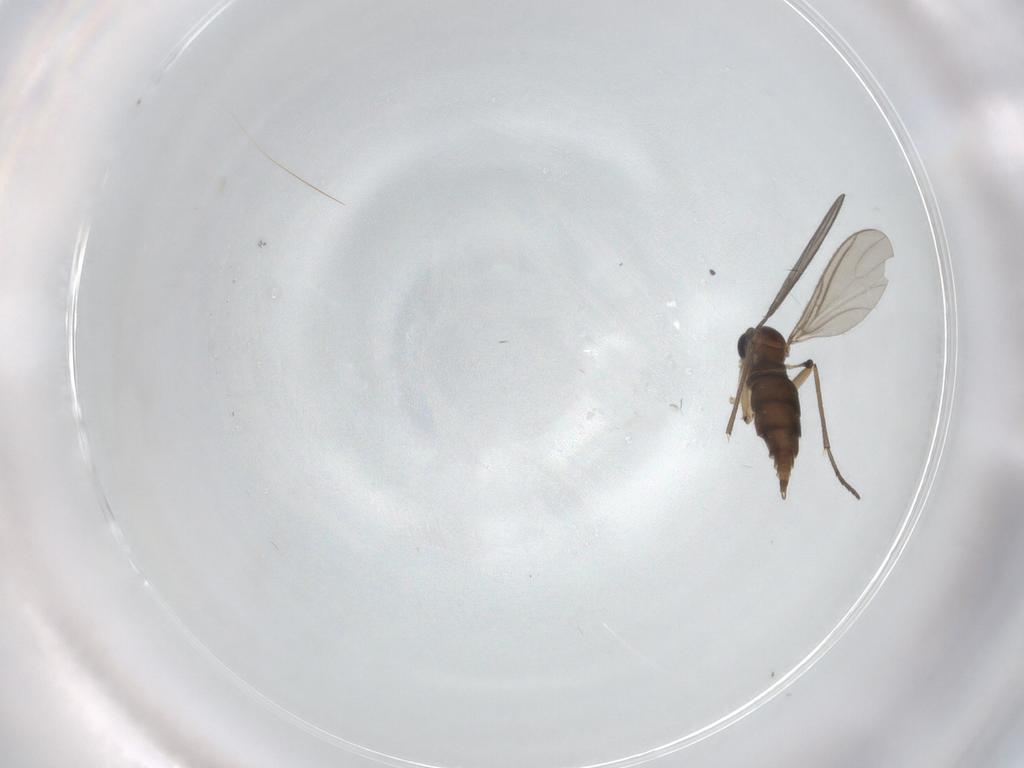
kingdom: Animalia
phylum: Arthropoda
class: Insecta
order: Diptera
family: Sciaridae
